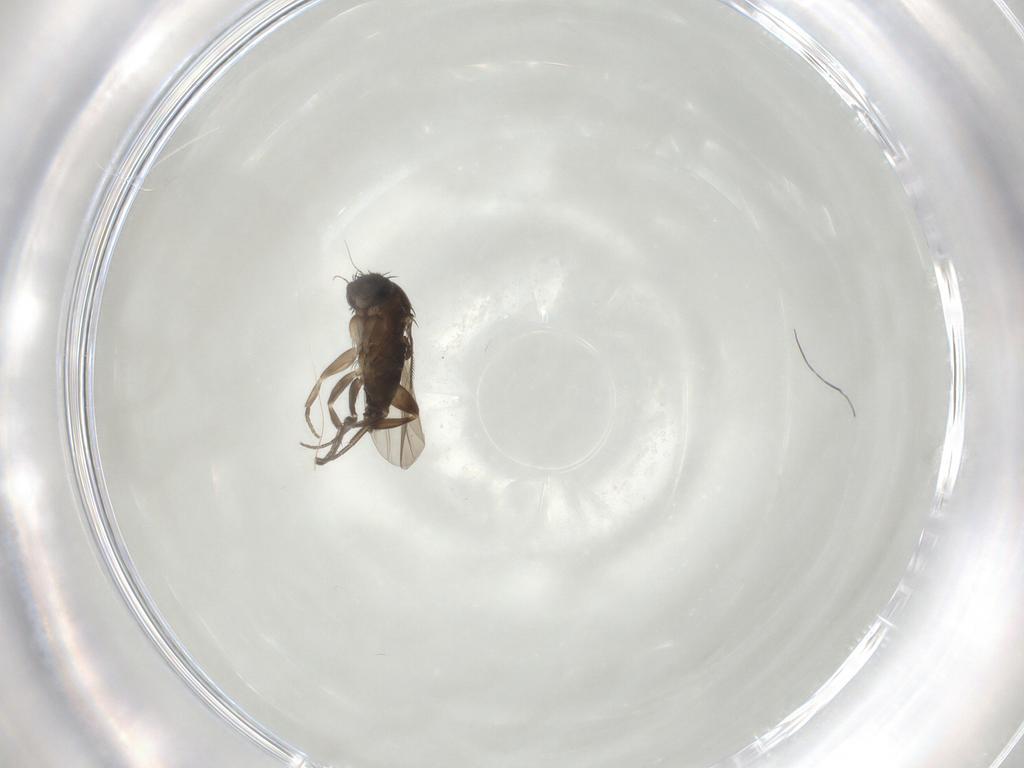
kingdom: Animalia
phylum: Arthropoda
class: Insecta
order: Diptera
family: Phoridae
